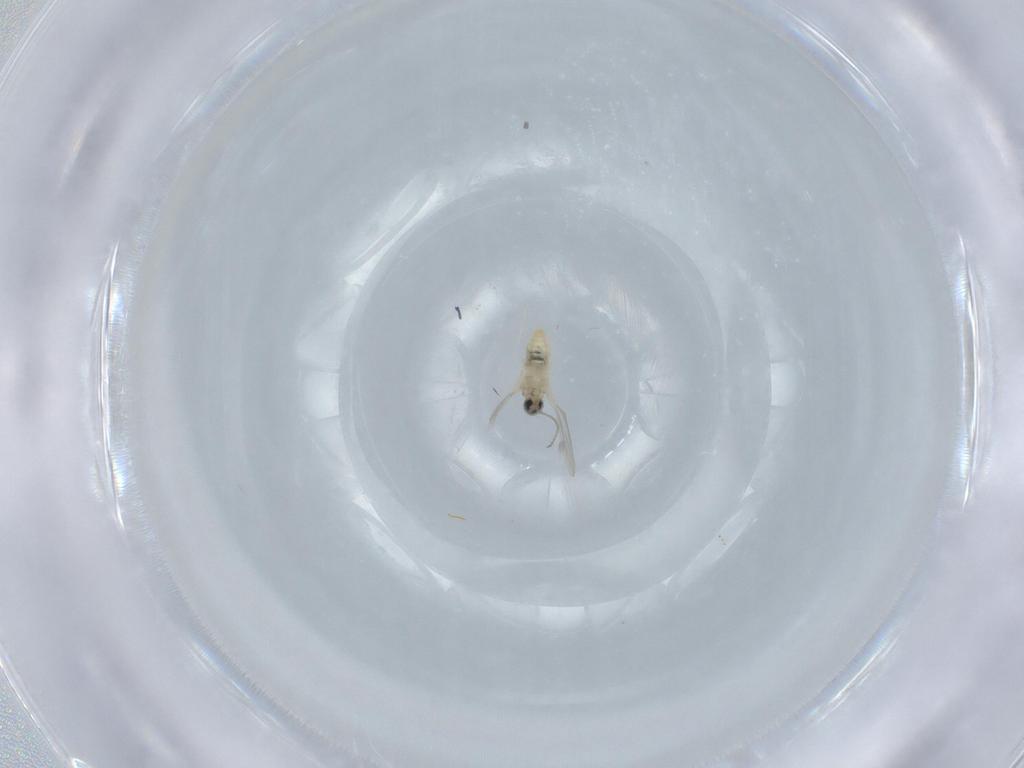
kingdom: Animalia
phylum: Arthropoda
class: Insecta
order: Diptera
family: Cecidomyiidae
